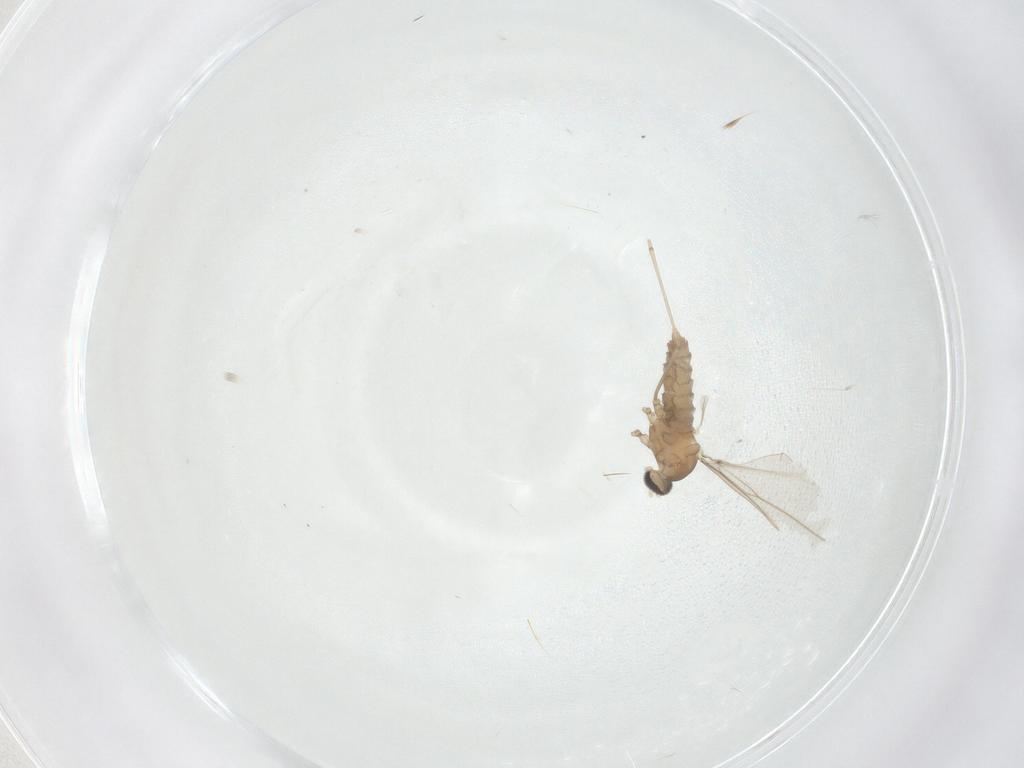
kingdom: Animalia
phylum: Arthropoda
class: Insecta
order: Diptera
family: Cecidomyiidae
